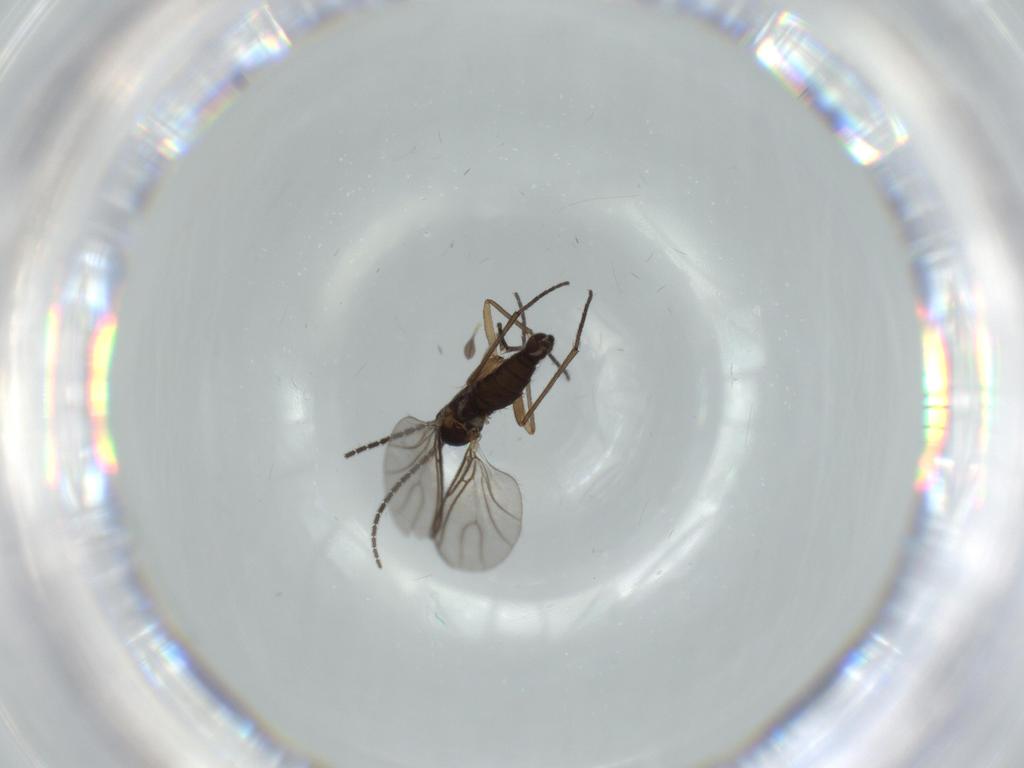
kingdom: Animalia
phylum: Arthropoda
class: Insecta
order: Diptera
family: Sciaridae
